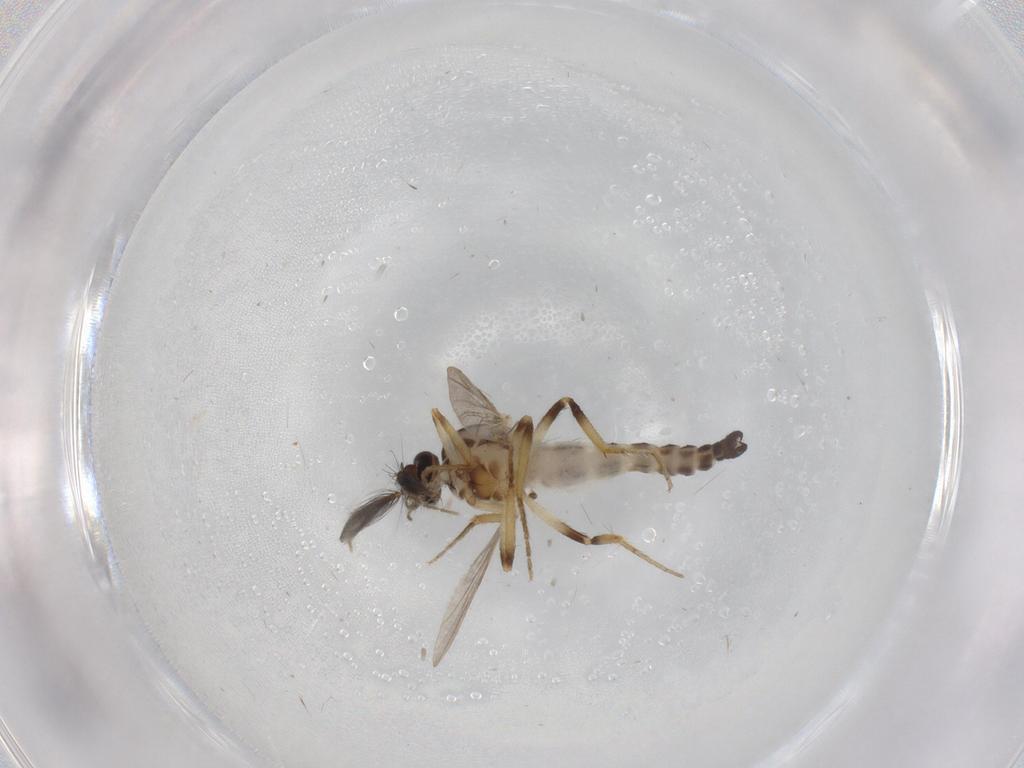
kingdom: Animalia
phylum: Arthropoda
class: Insecta
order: Diptera
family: Ceratopogonidae
